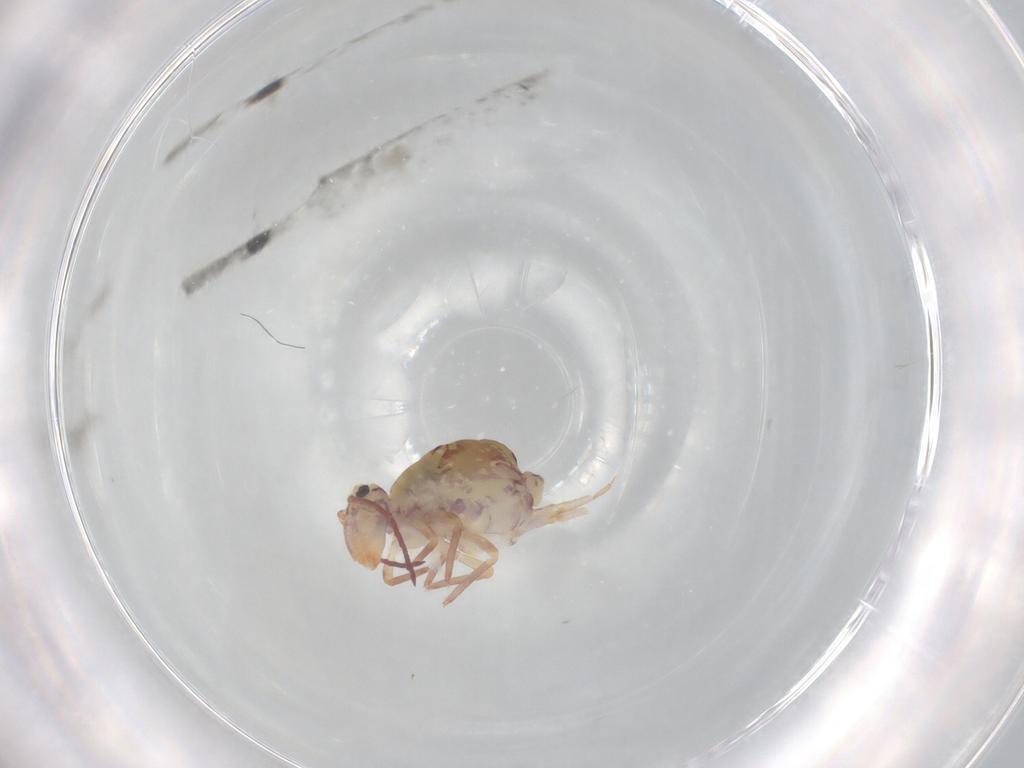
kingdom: Animalia
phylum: Arthropoda
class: Collembola
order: Symphypleona
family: Dicyrtomidae
